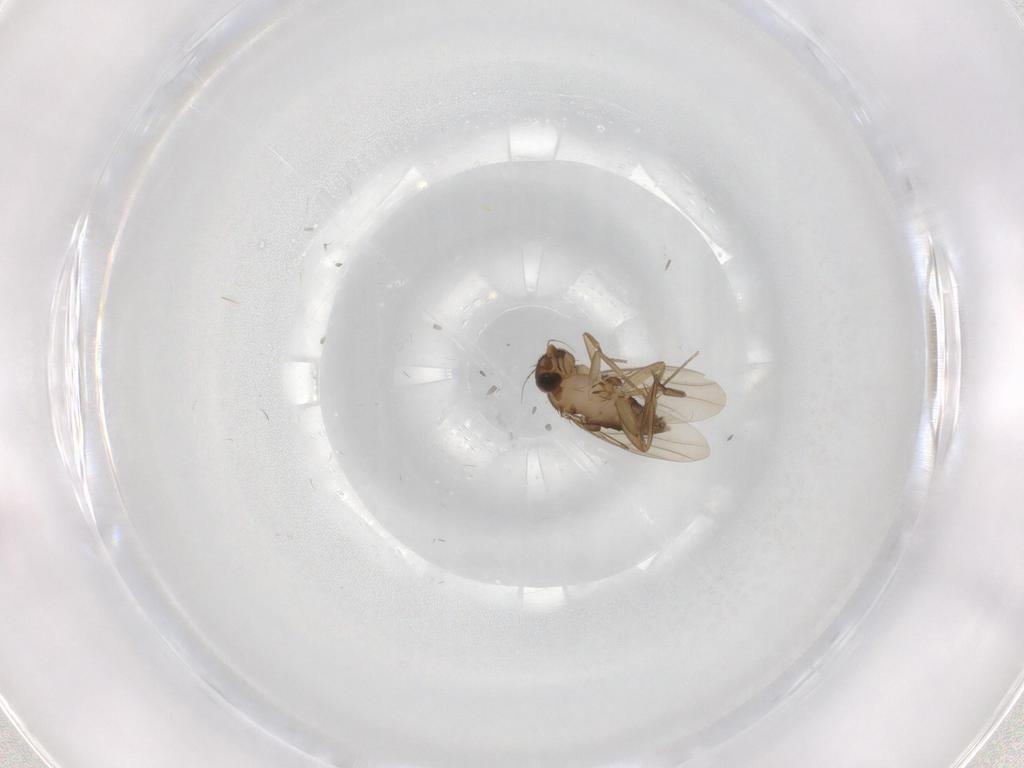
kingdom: Animalia
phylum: Arthropoda
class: Insecta
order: Diptera
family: Phoridae
